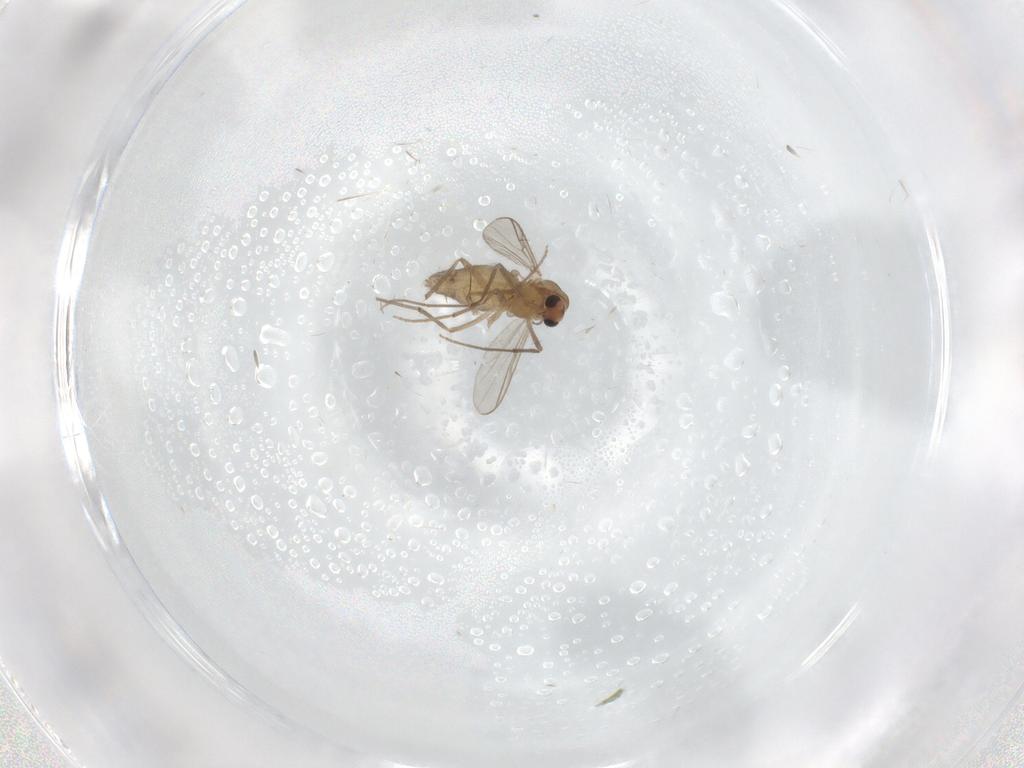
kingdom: Animalia
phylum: Arthropoda
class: Insecta
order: Diptera
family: Chironomidae
